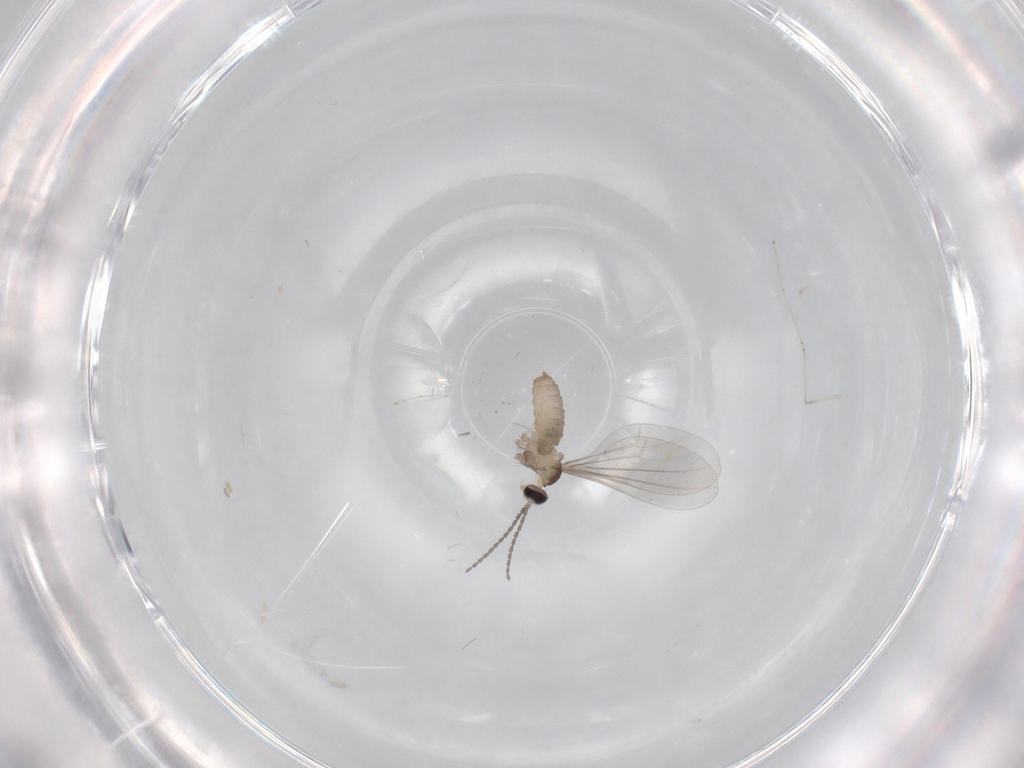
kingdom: Animalia
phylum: Arthropoda
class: Insecta
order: Diptera
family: Cecidomyiidae
